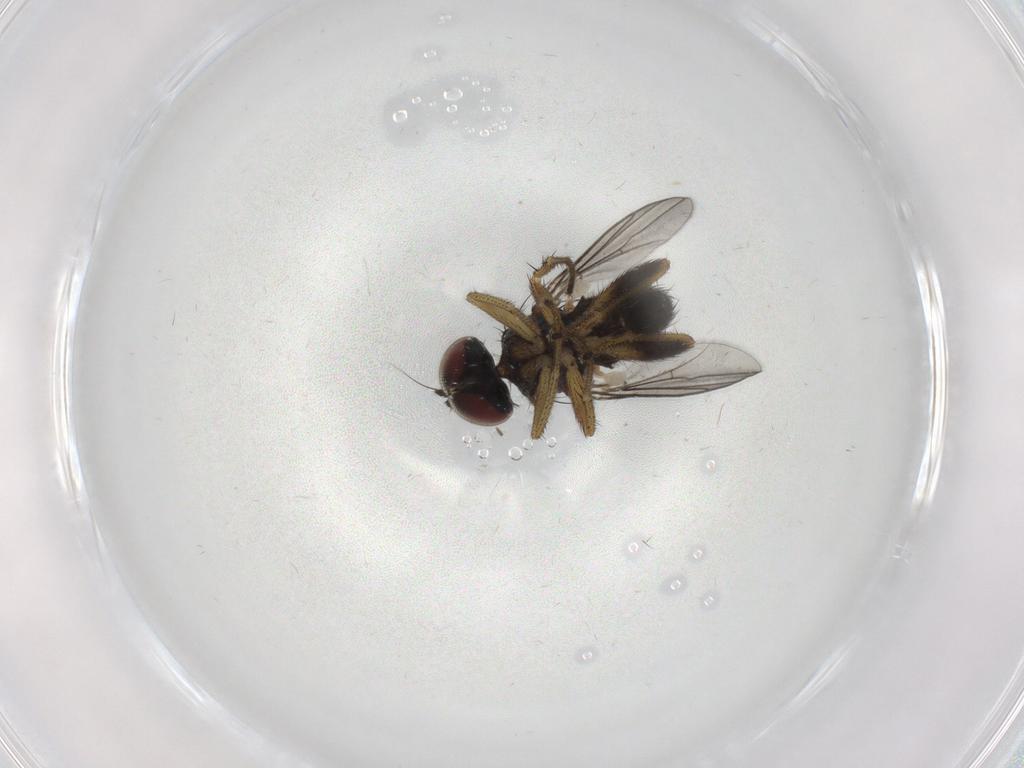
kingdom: Animalia
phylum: Arthropoda
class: Insecta
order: Diptera
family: Dolichopodidae
